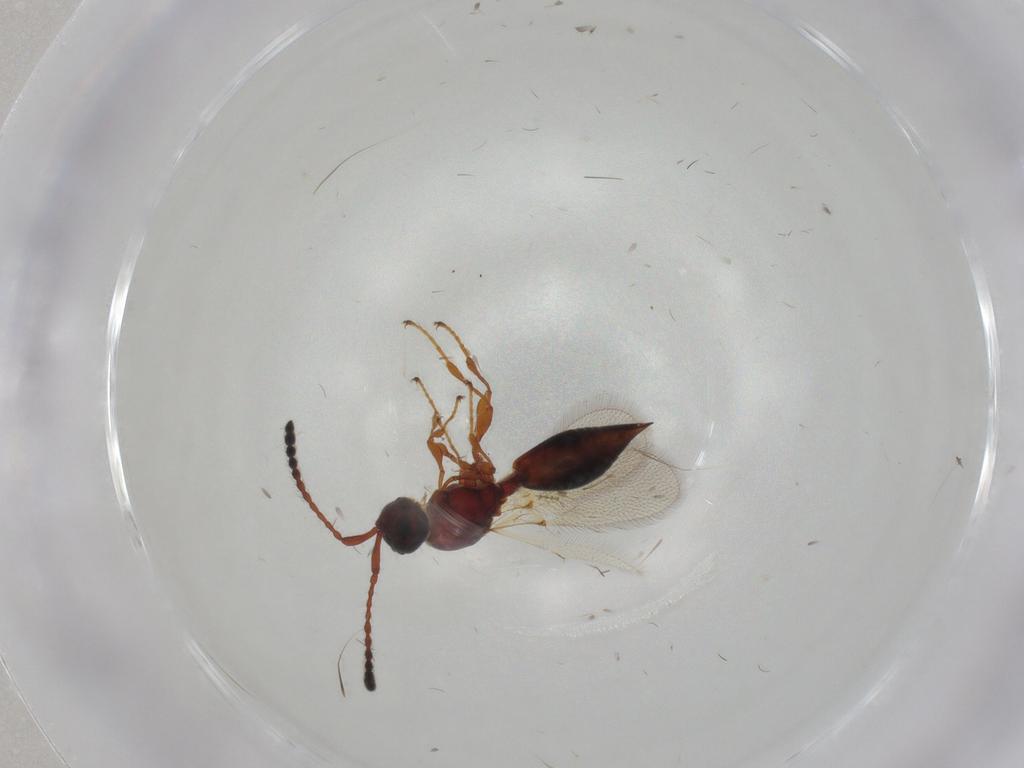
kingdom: Animalia
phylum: Arthropoda
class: Insecta
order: Hymenoptera
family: Diapriidae
